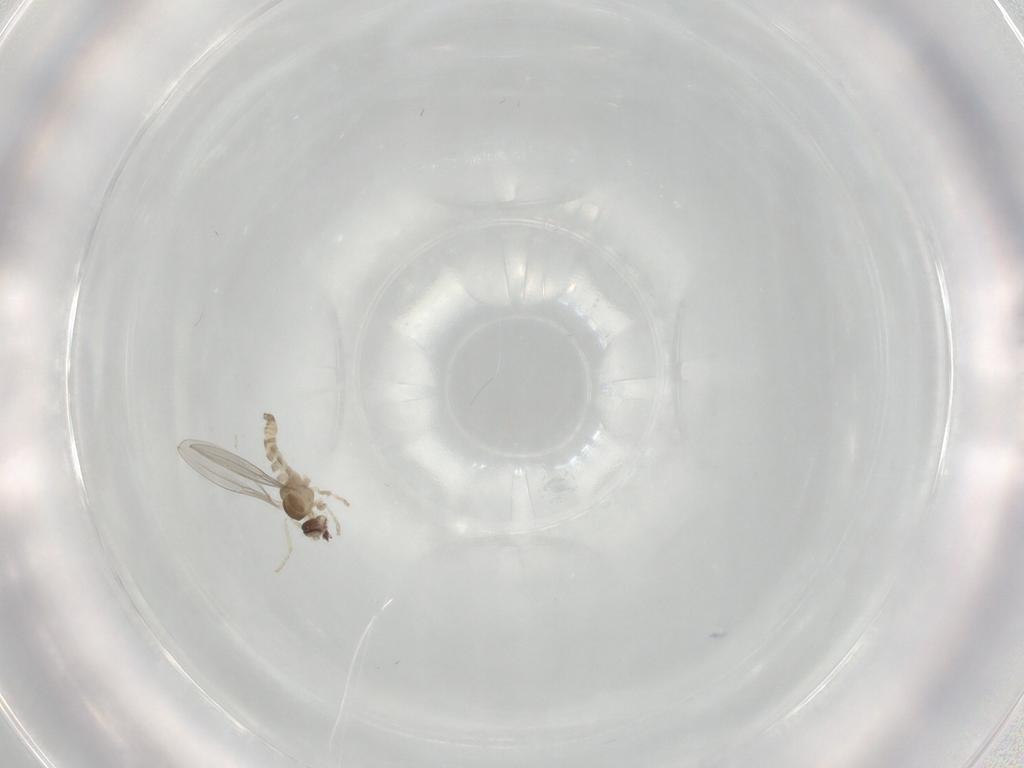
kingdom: Animalia
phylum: Arthropoda
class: Insecta
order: Diptera
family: Cecidomyiidae
